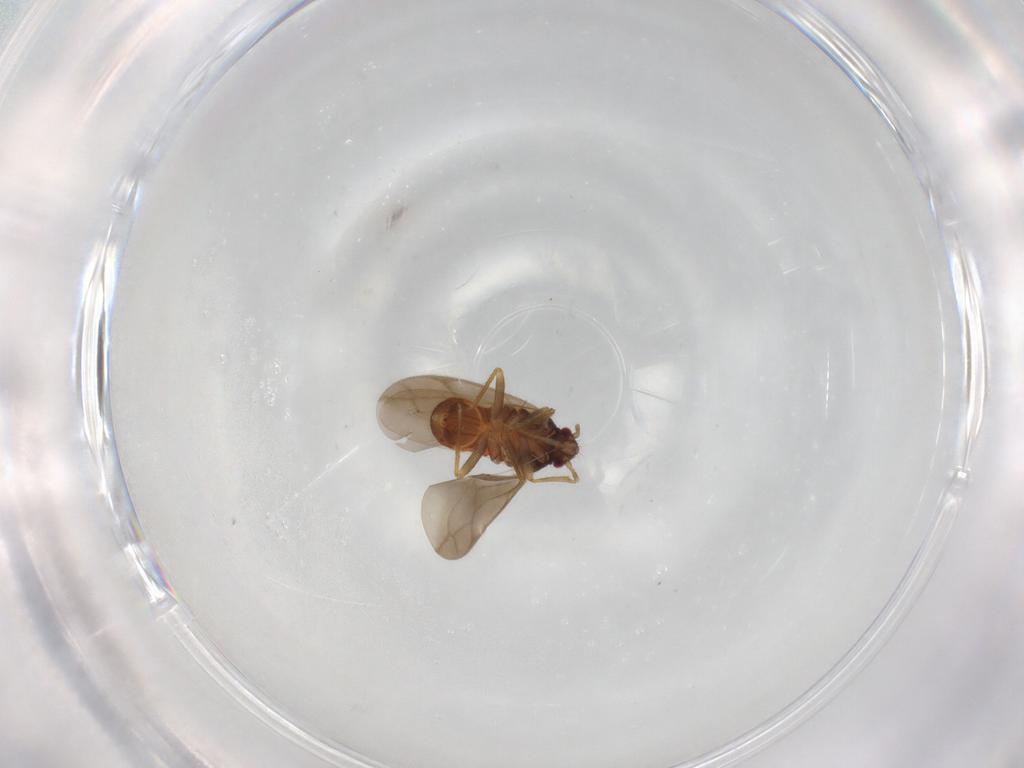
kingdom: Animalia
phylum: Arthropoda
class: Insecta
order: Hemiptera
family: Ceratocombidae
